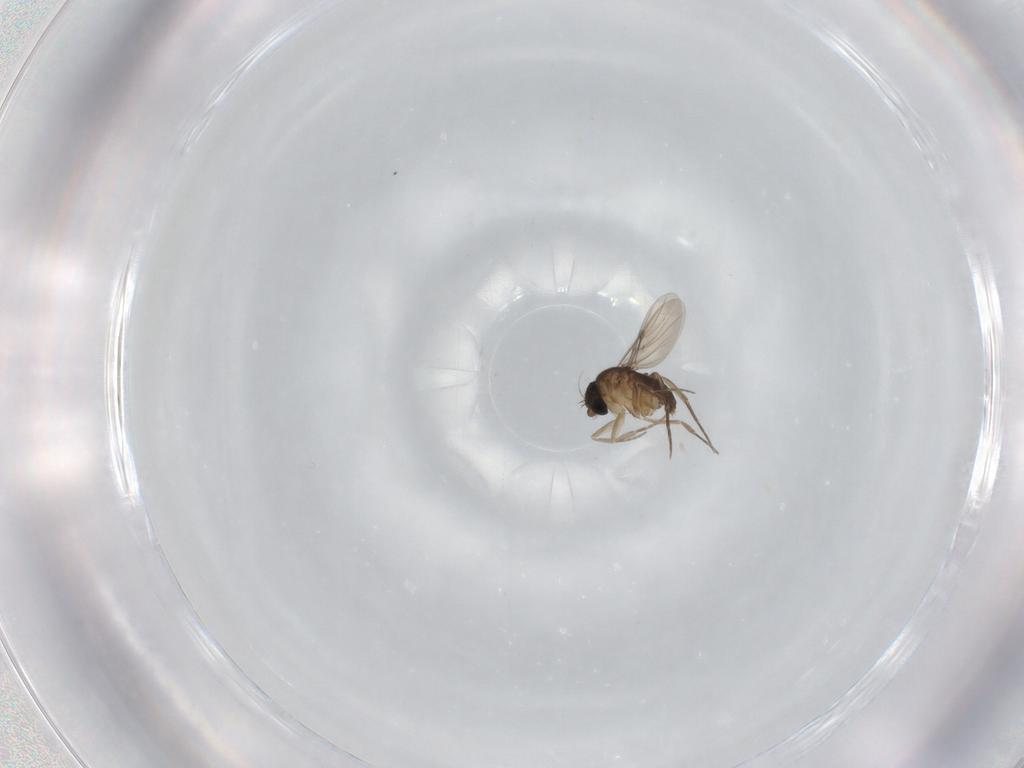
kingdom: Animalia
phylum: Arthropoda
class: Insecta
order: Diptera
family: Phoridae
